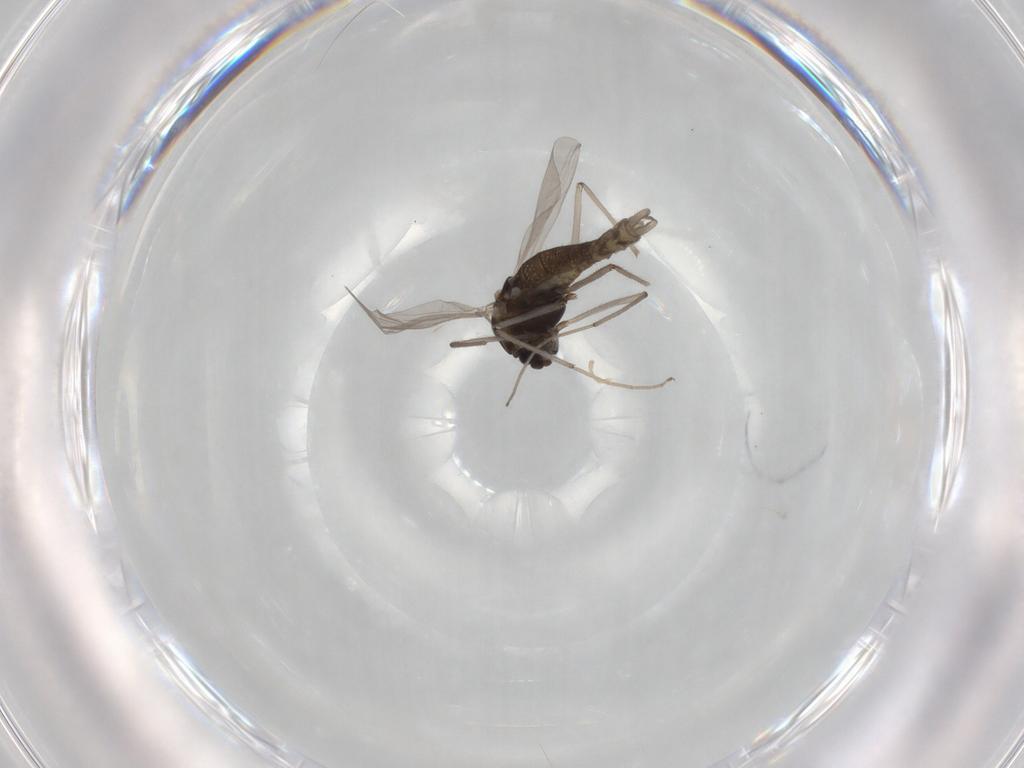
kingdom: Animalia
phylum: Arthropoda
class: Insecta
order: Diptera
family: Chironomidae
